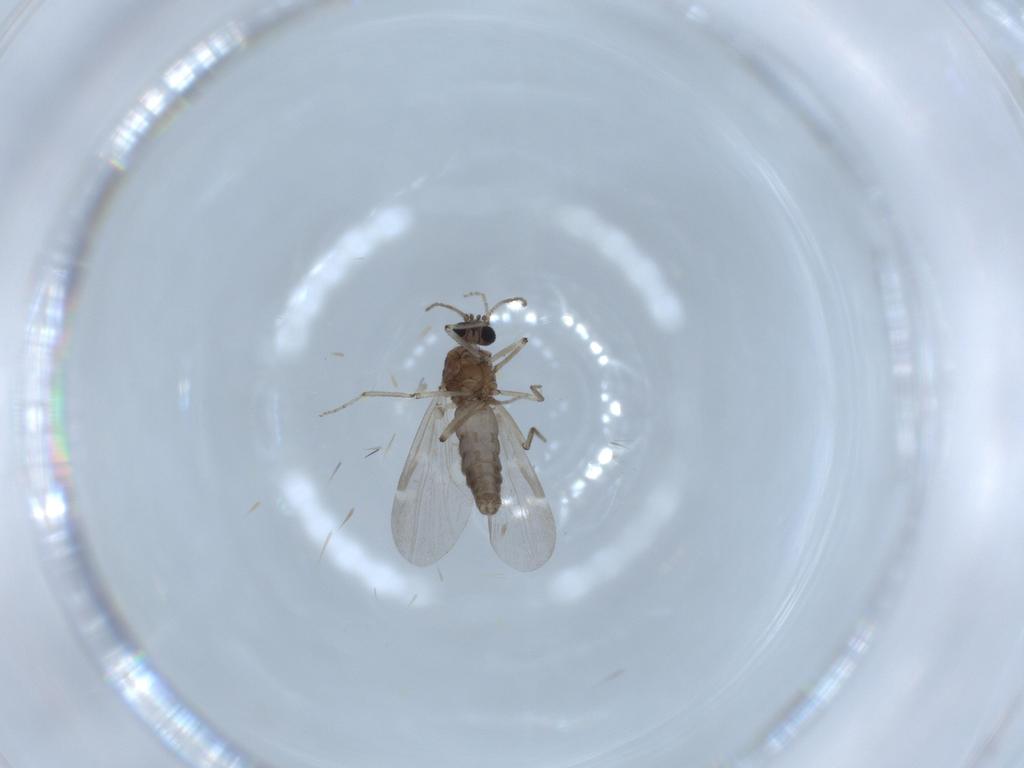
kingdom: Animalia
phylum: Arthropoda
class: Insecta
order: Diptera
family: Ceratopogonidae
